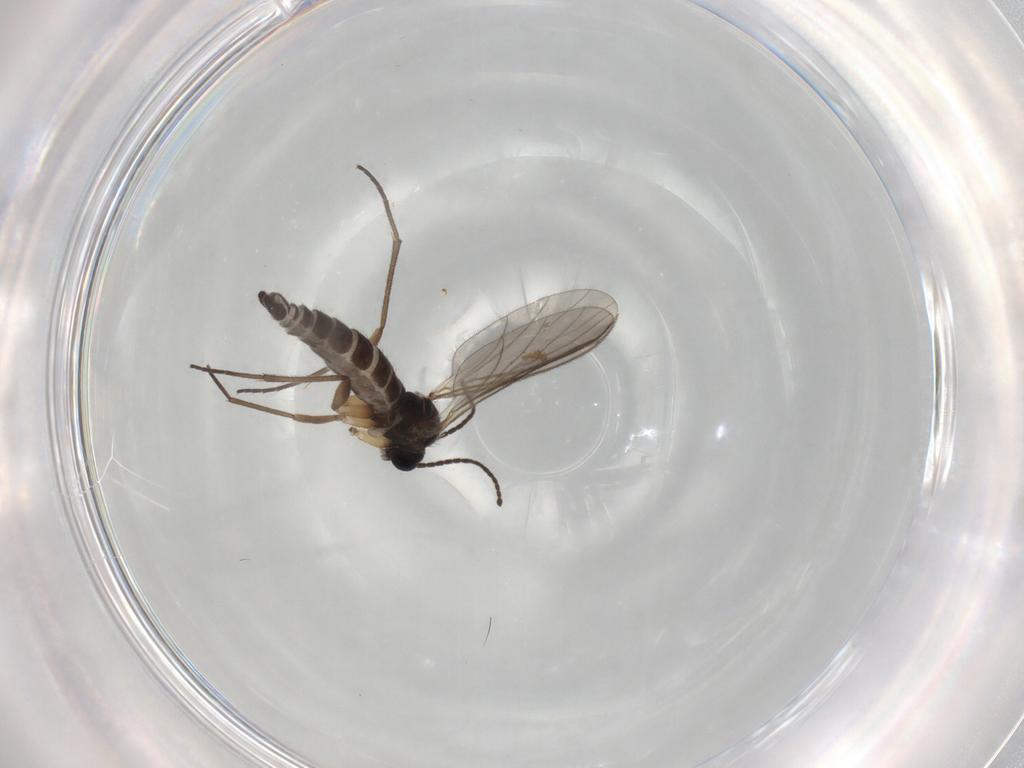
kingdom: Animalia
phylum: Arthropoda
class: Insecta
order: Diptera
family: Sciaridae
